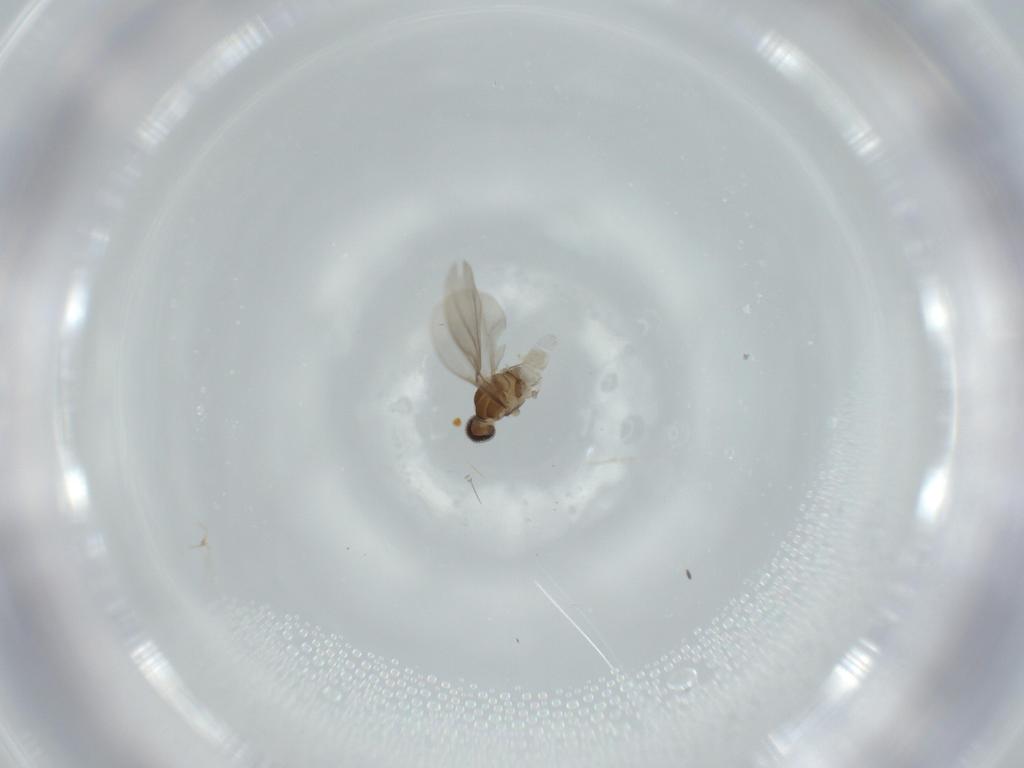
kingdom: Animalia
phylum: Arthropoda
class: Insecta
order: Diptera
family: Cecidomyiidae
